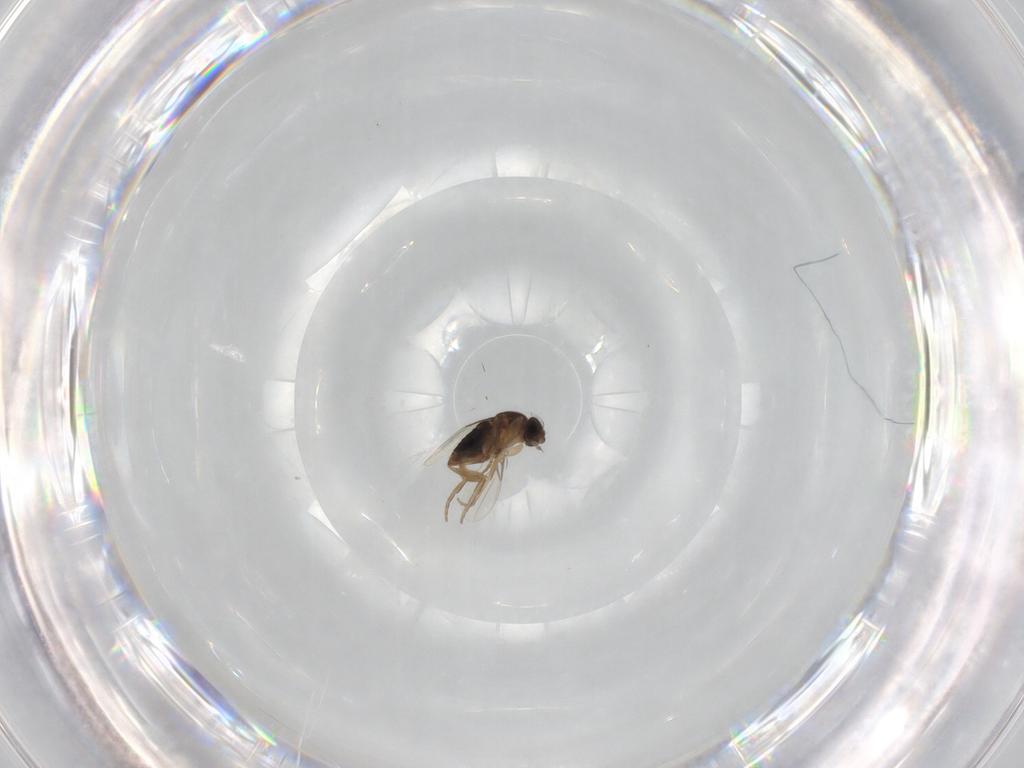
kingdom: Animalia
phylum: Arthropoda
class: Insecta
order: Diptera
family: Phoridae
